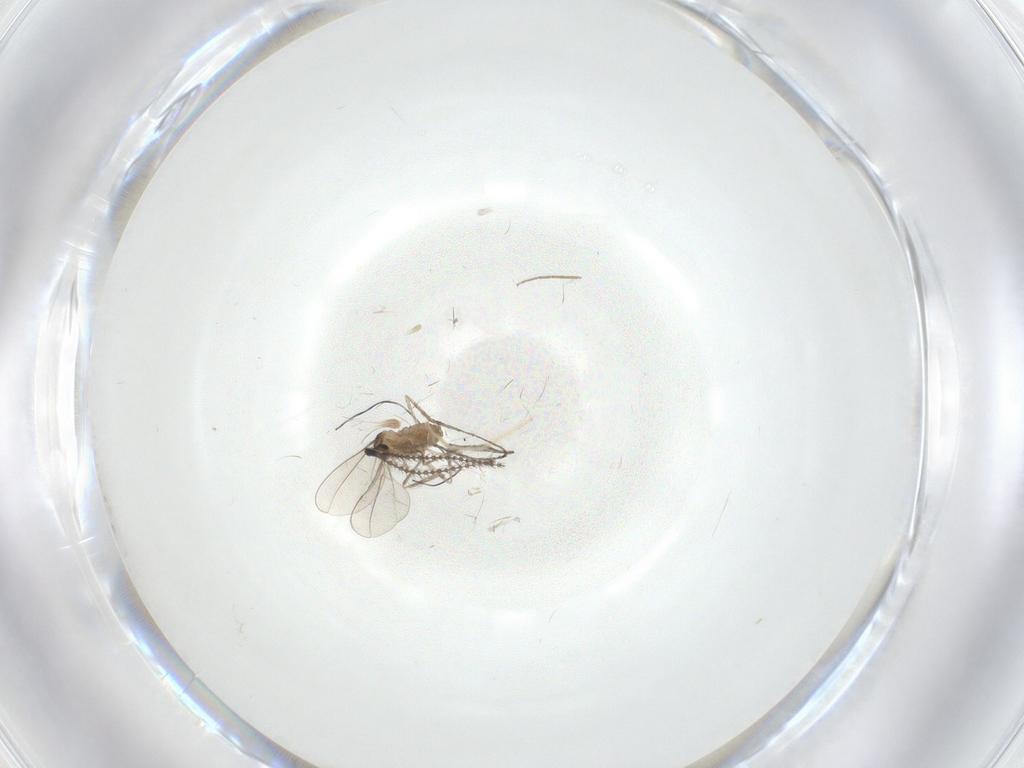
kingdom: Animalia
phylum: Arthropoda
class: Insecta
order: Diptera
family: Cecidomyiidae
